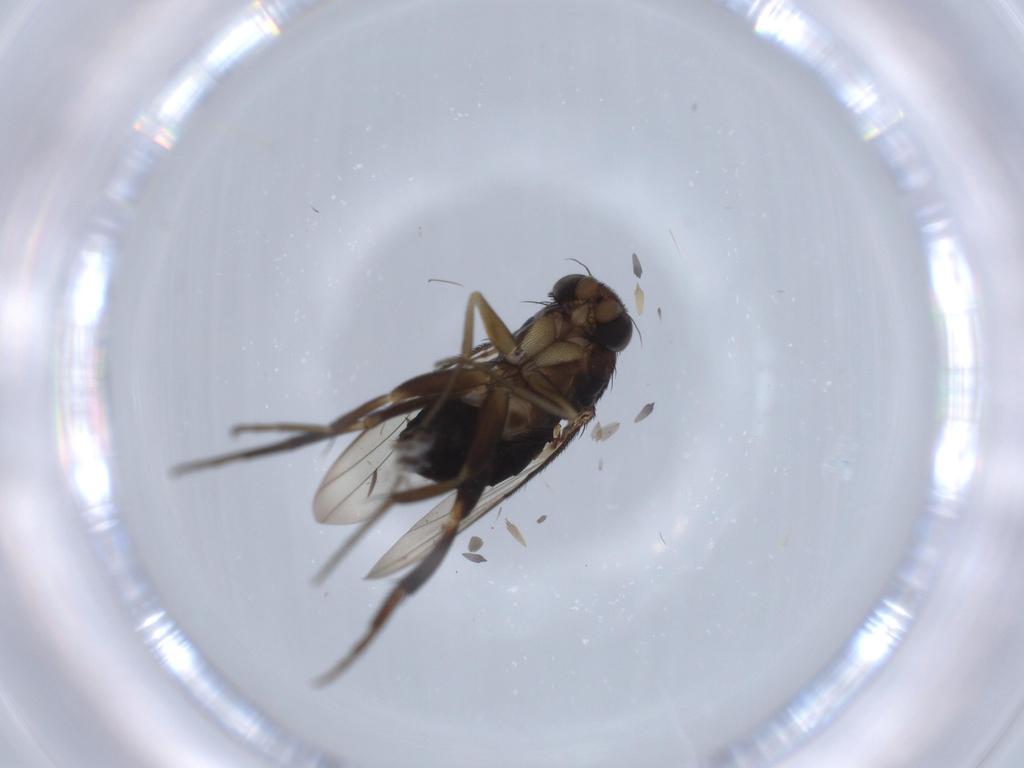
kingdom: Animalia
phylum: Arthropoda
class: Insecta
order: Diptera
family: Phoridae
